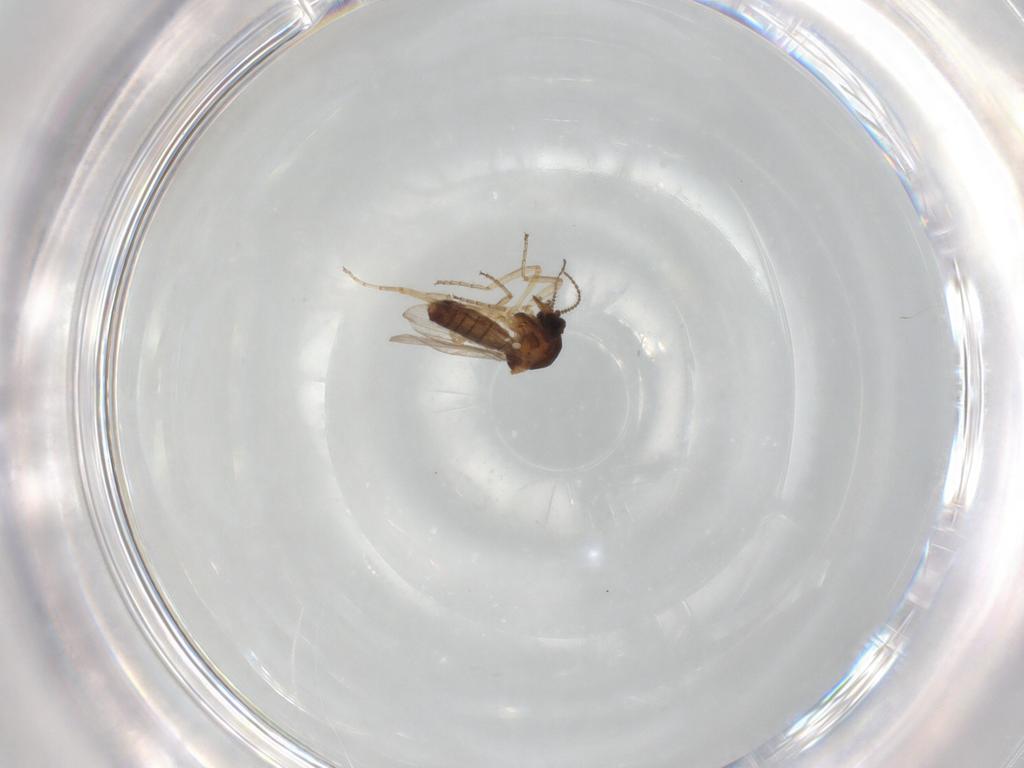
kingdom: Animalia
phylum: Arthropoda
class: Insecta
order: Diptera
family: Ceratopogonidae
